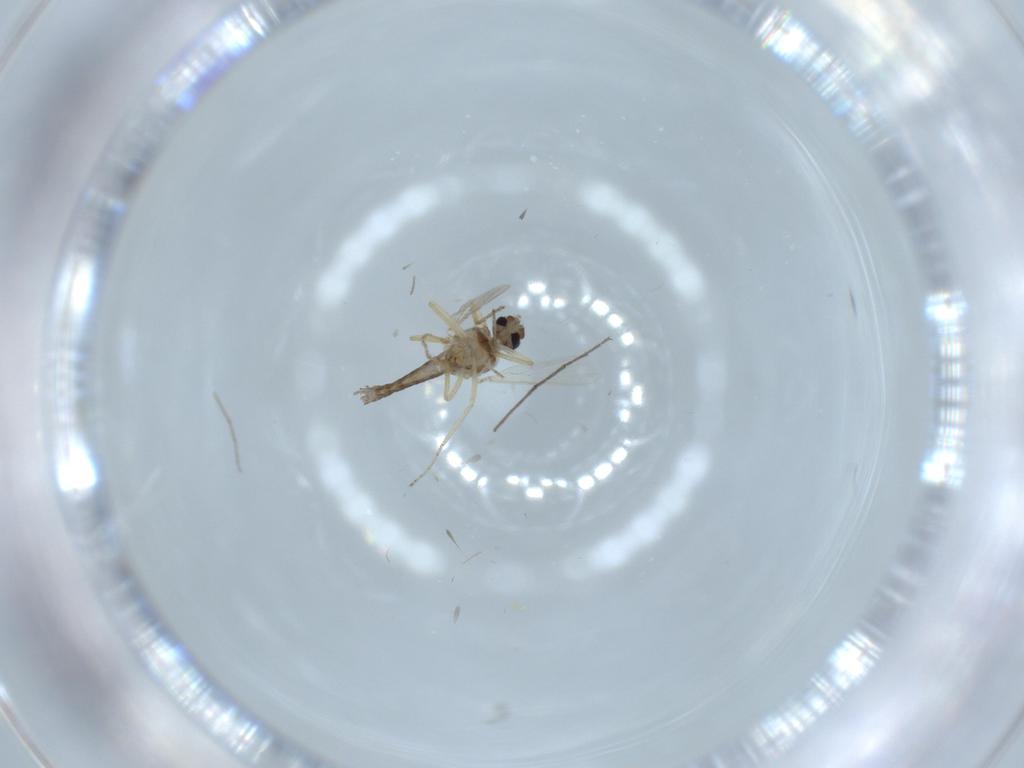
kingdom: Animalia
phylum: Arthropoda
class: Insecta
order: Diptera
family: Ceratopogonidae
